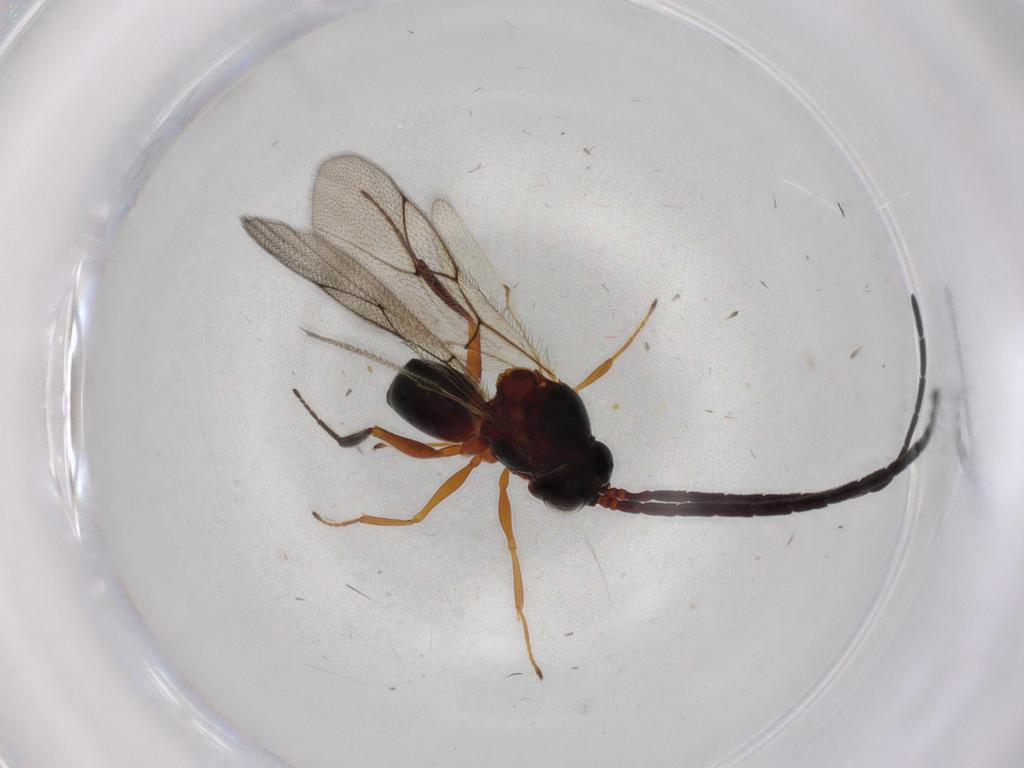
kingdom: Animalia
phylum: Arthropoda
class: Insecta
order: Hymenoptera
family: Figitidae
